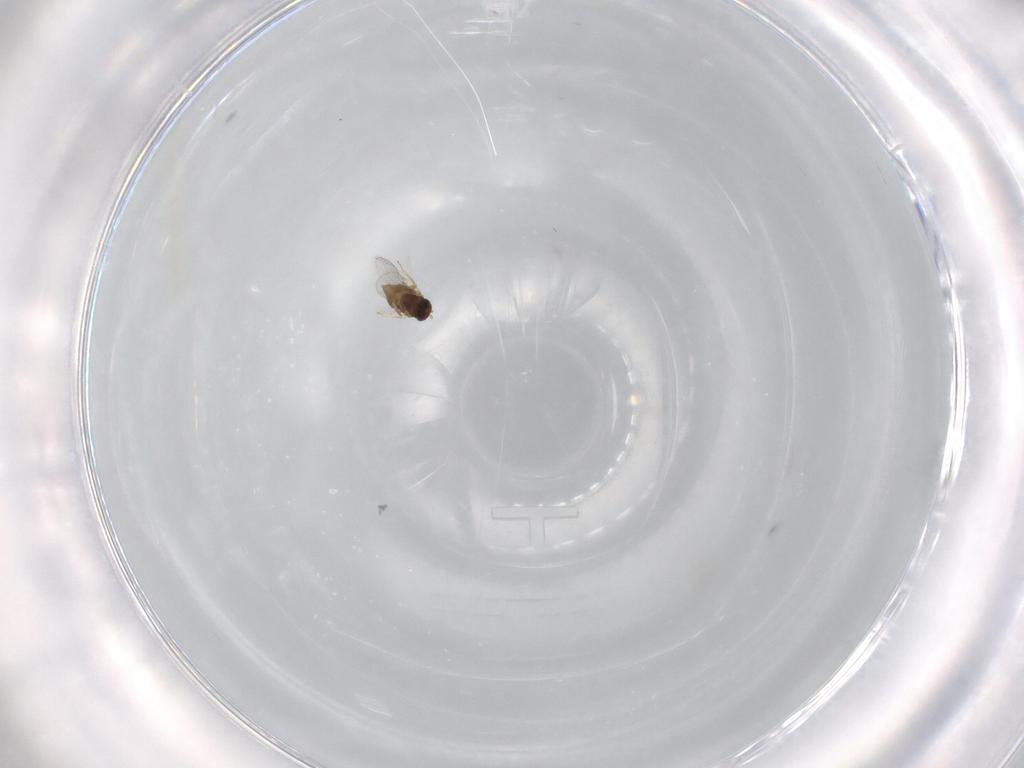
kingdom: Animalia
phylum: Arthropoda
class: Insecta
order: Hymenoptera
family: Encyrtidae
